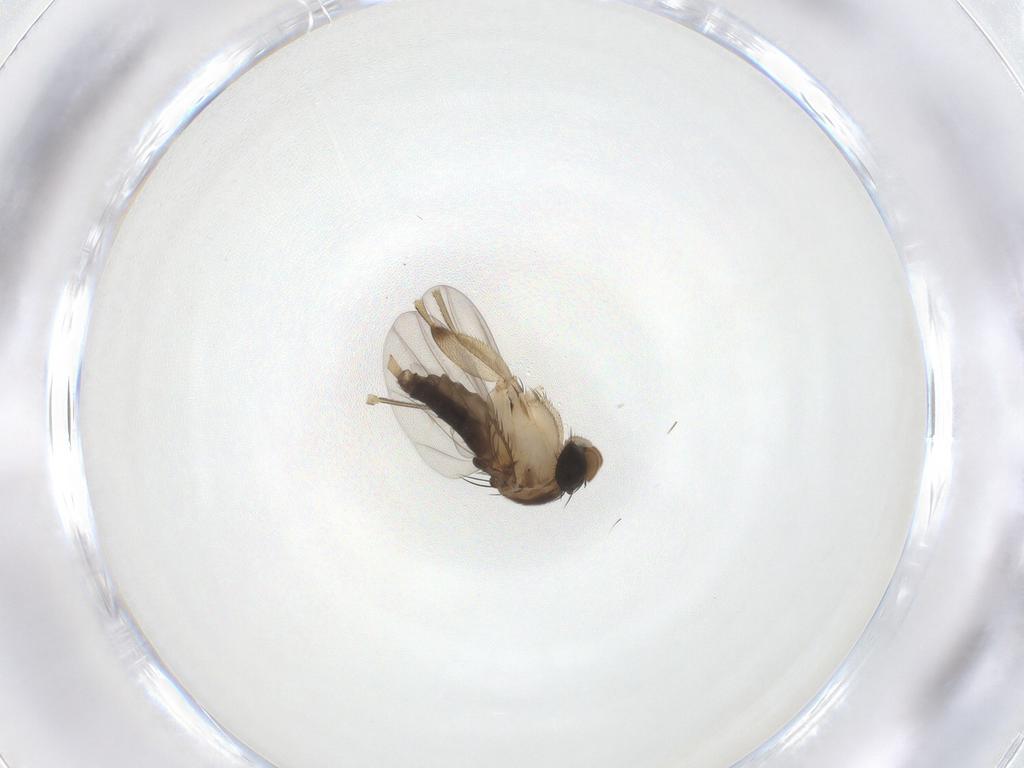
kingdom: Animalia
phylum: Arthropoda
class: Insecta
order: Diptera
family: Phoridae
